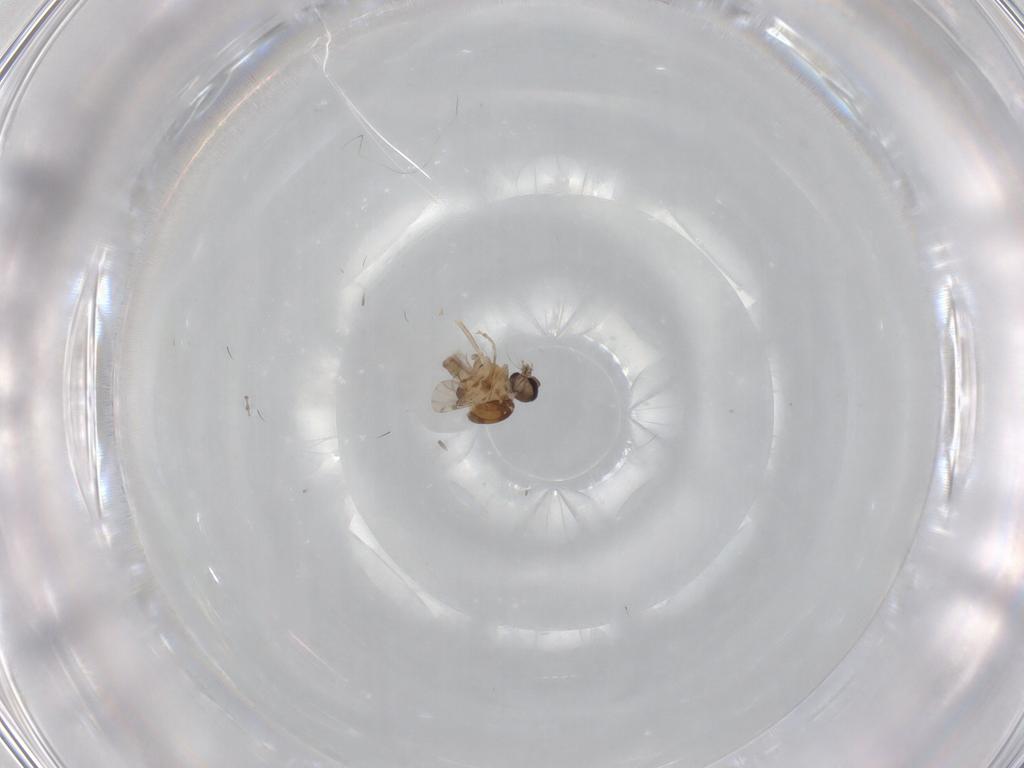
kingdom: Animalia
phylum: Arthropoda
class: Insecta
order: Diptera
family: Ceratopogonidae
